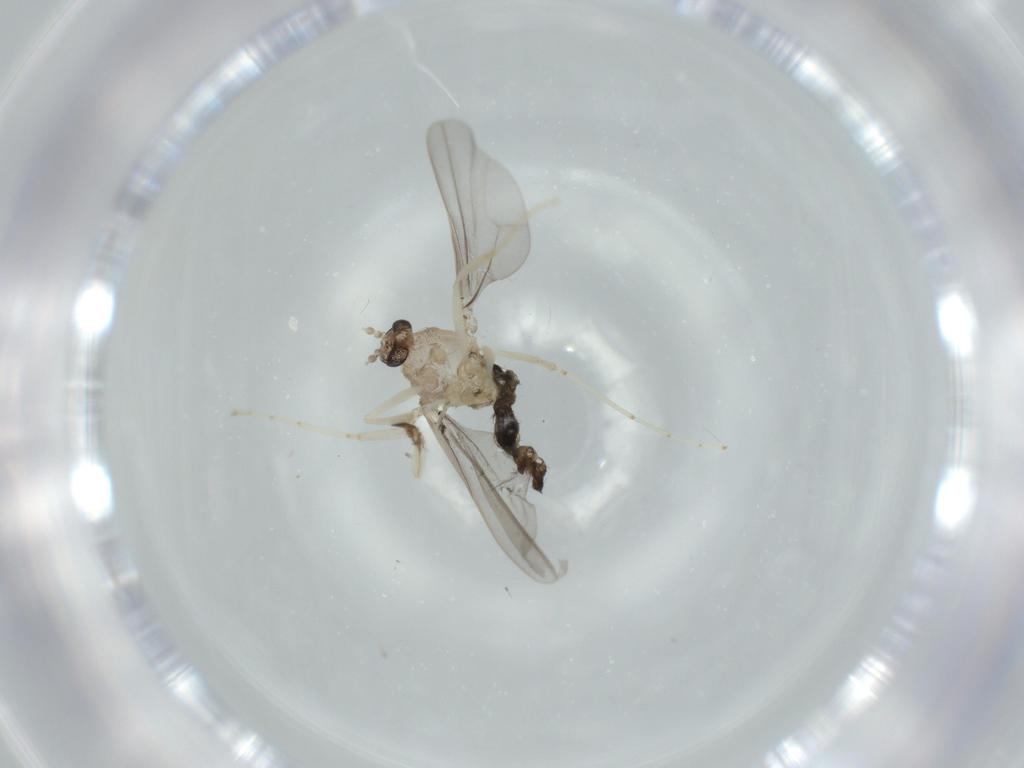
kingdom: Animalia
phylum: Arthropoda
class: Insecta
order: Diptera
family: Cecidomyiidae
